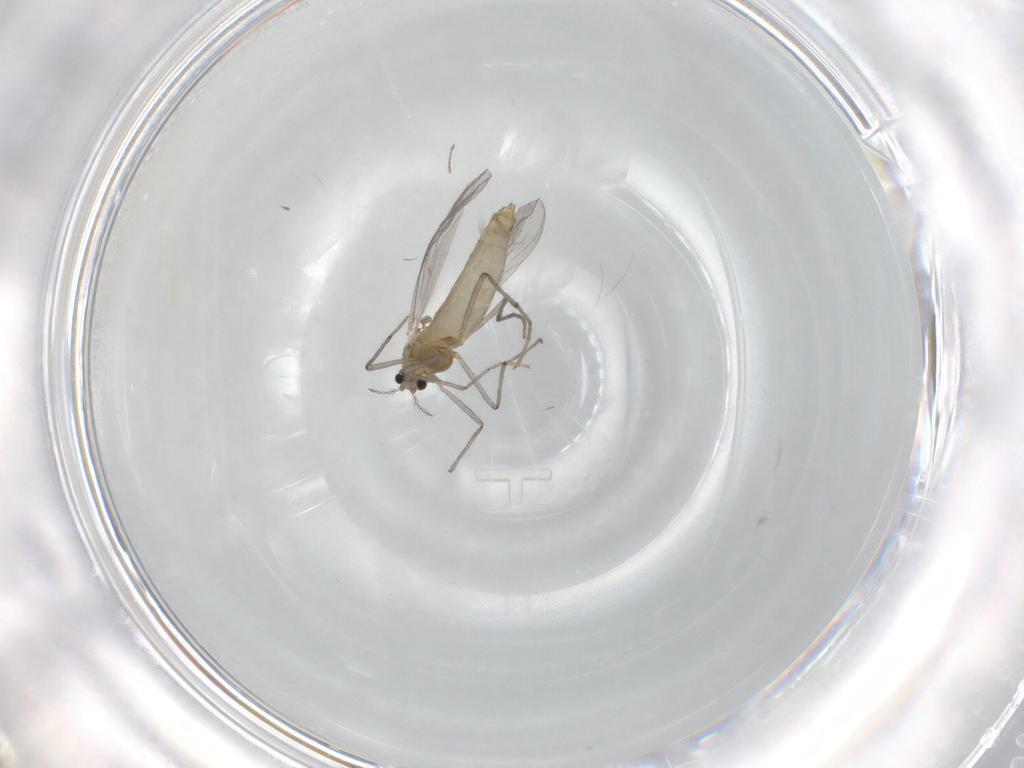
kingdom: Animalia
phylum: Arthropoda
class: Insecta
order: Diptera
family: Chironomidae
